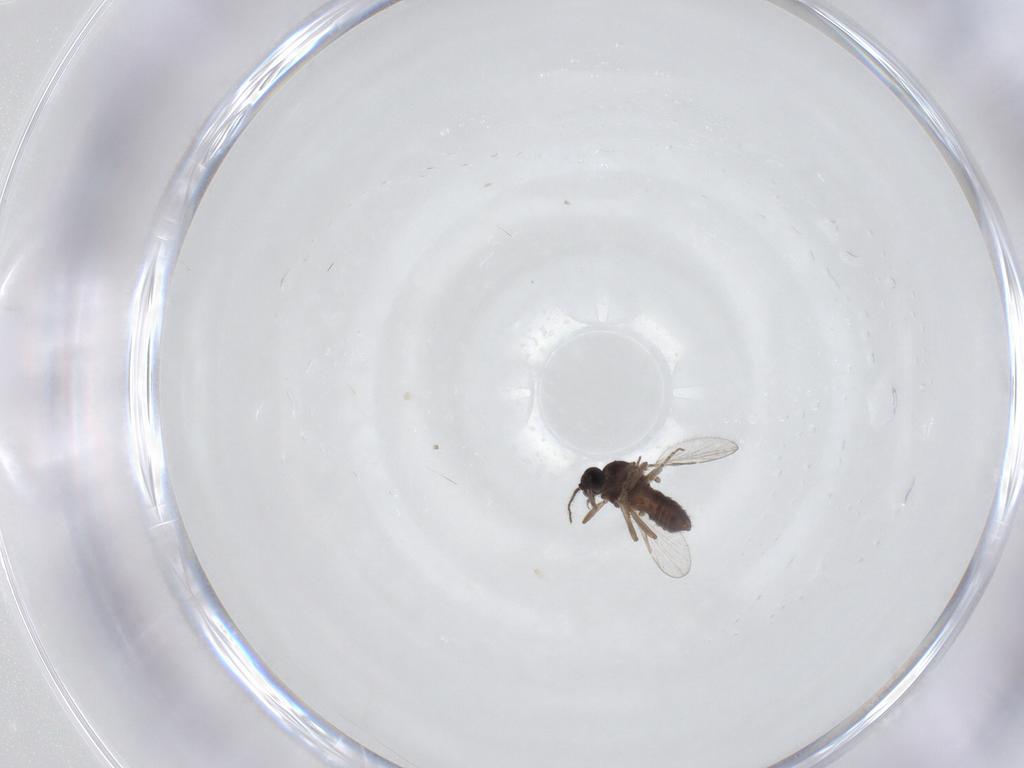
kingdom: Animalia
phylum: Arthropoda
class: Insecta
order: Diptera
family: Ceratopogonidae
